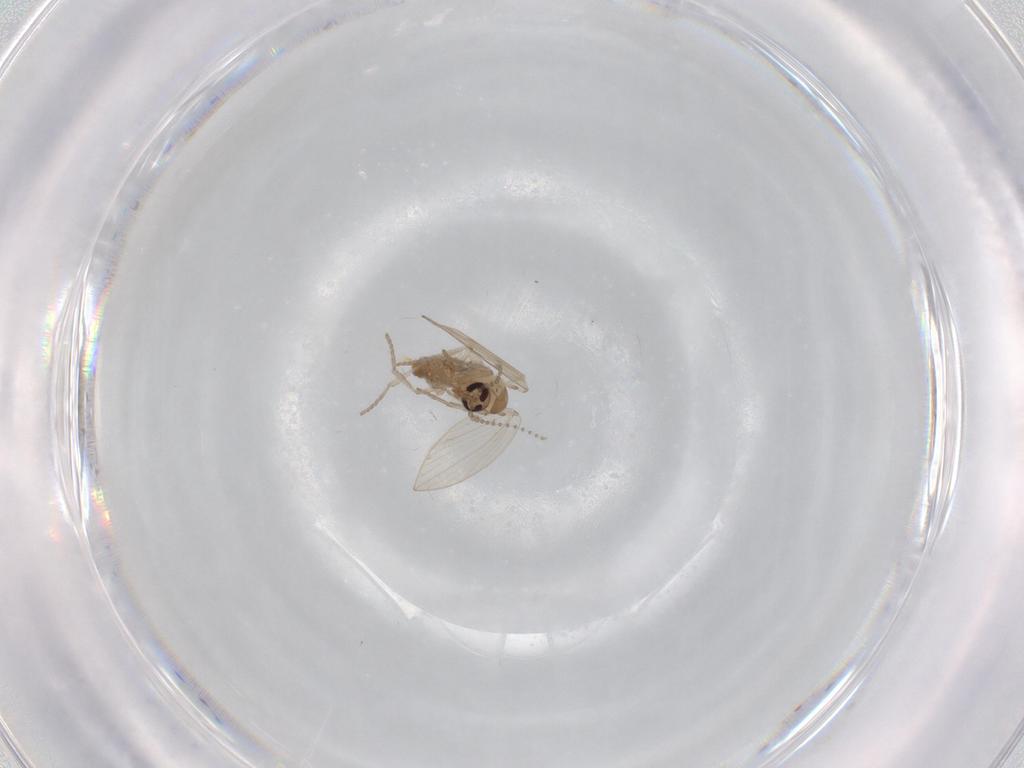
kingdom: Animalia
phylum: Arthropoda
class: Insecta
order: Diptera
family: Psychodidae
